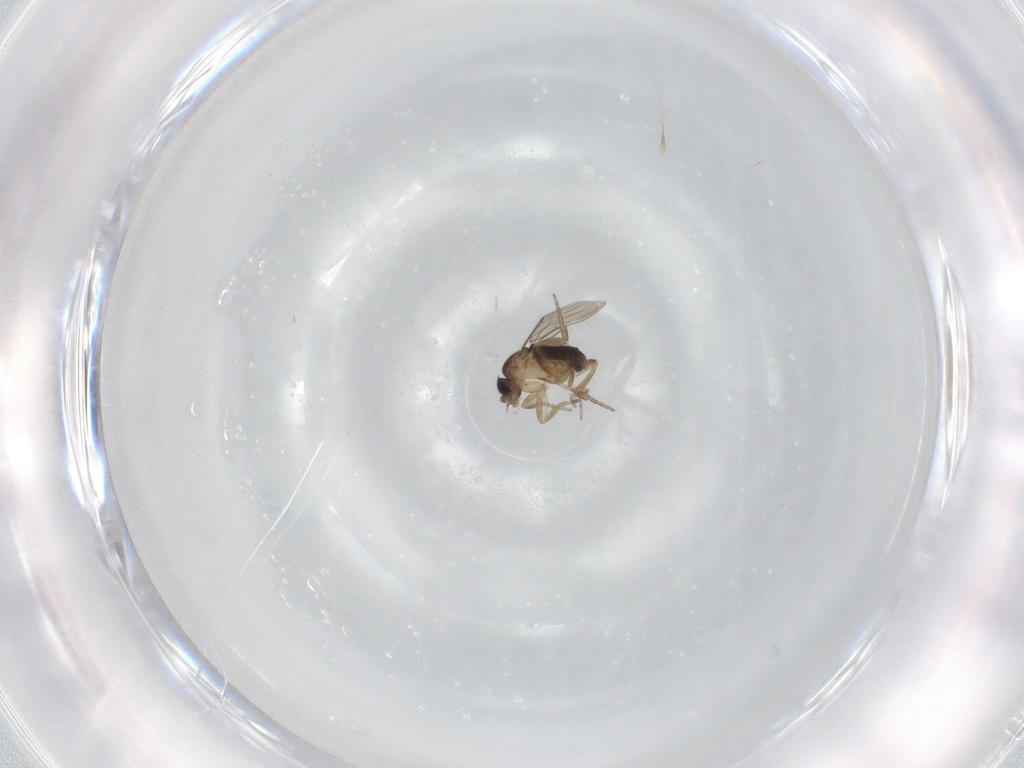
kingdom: Animalia
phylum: Arthropoda
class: Insecta
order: Diptera
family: Phoridae
